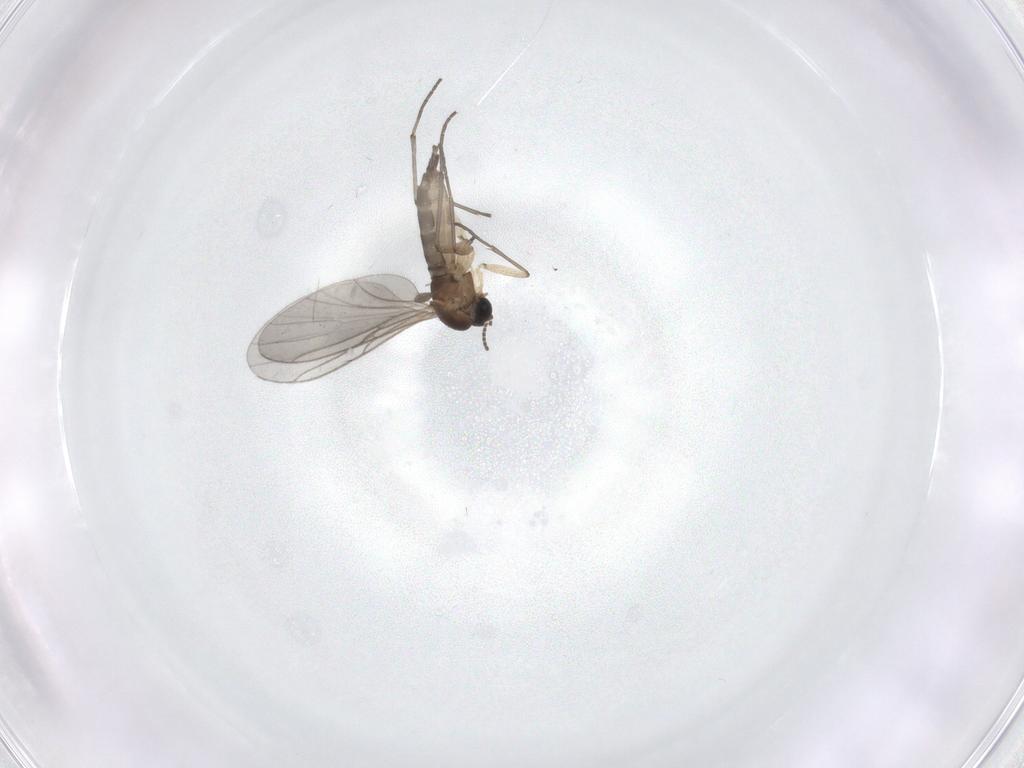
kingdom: Animalia
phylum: Arthropoda
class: Insecta
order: Diptera
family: Sciaridae
